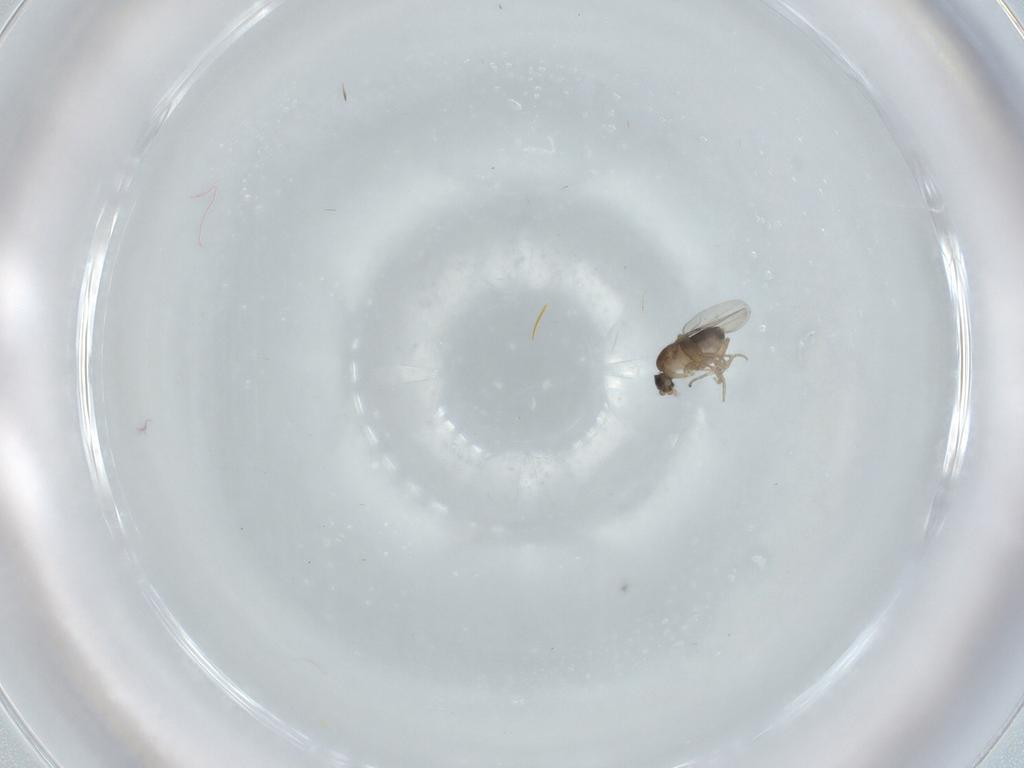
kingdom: Animalia
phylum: Arthropoda
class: Insecta
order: Diptera
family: Phoridae
